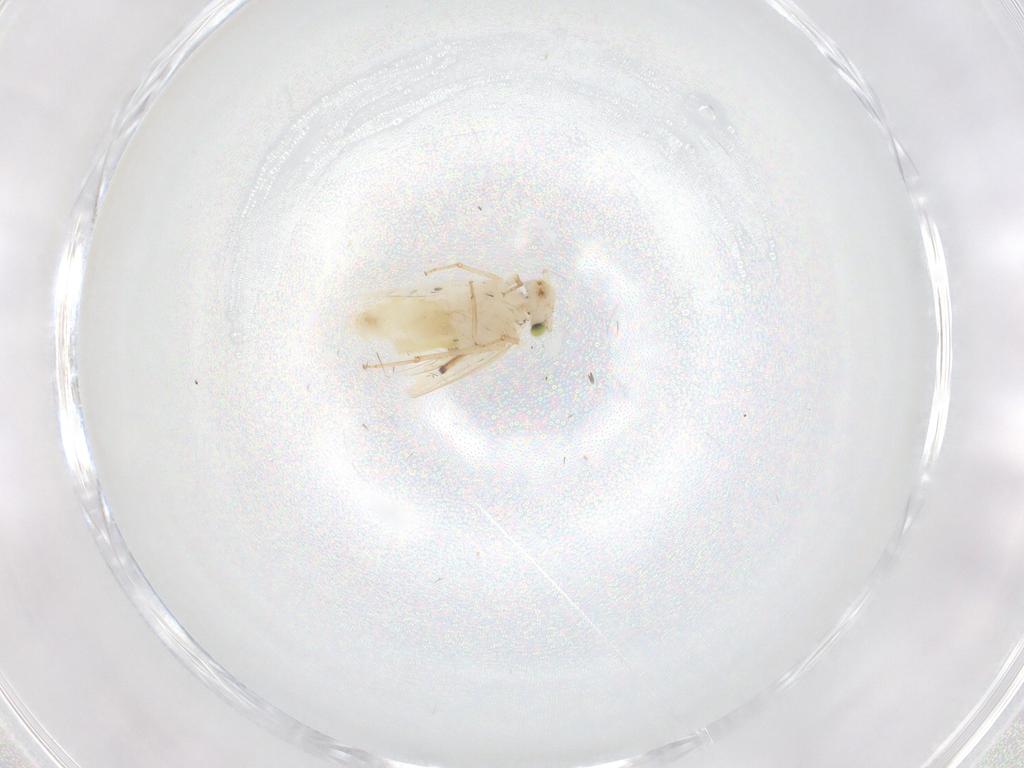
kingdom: Animalia
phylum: Arthropoda
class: Insecta
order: Psocodea
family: Lepidopsocidae
